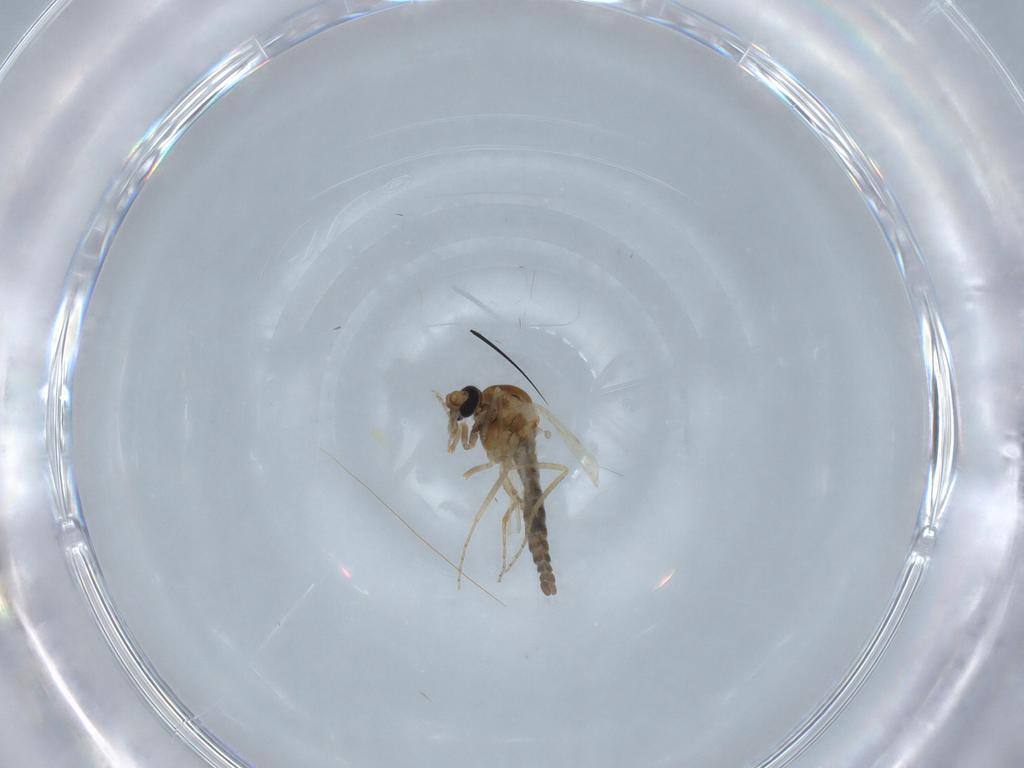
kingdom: Animalia
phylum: Arthropoda
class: Insecta
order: Diptera
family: Ceratopogonidae
